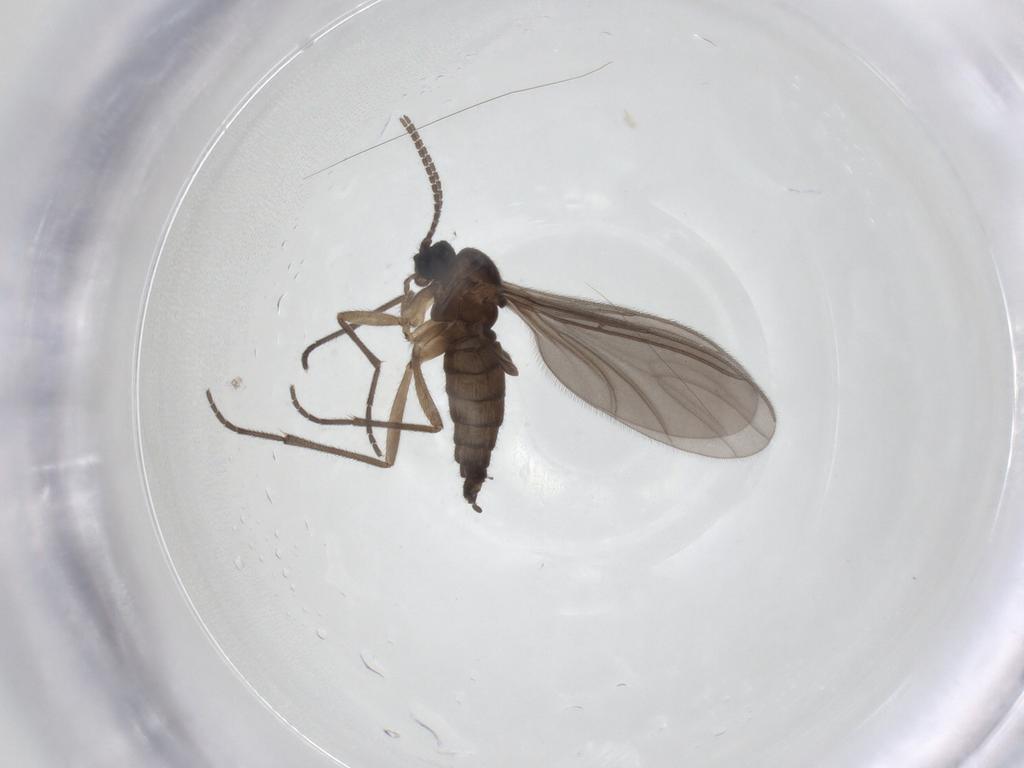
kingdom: Animalia
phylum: Arthropoda
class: Insecta
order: Diptera
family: Sciaridae
